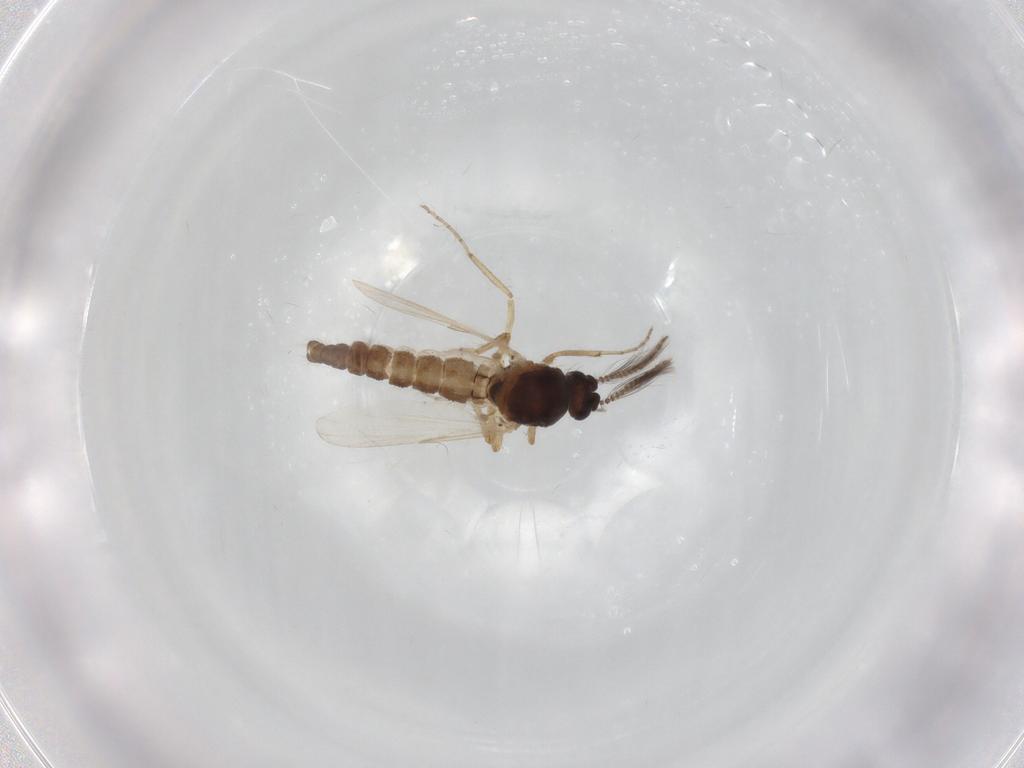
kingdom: Animalia
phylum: Arthropoda
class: Insecta
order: Diptera
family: Ceratopogonidae
